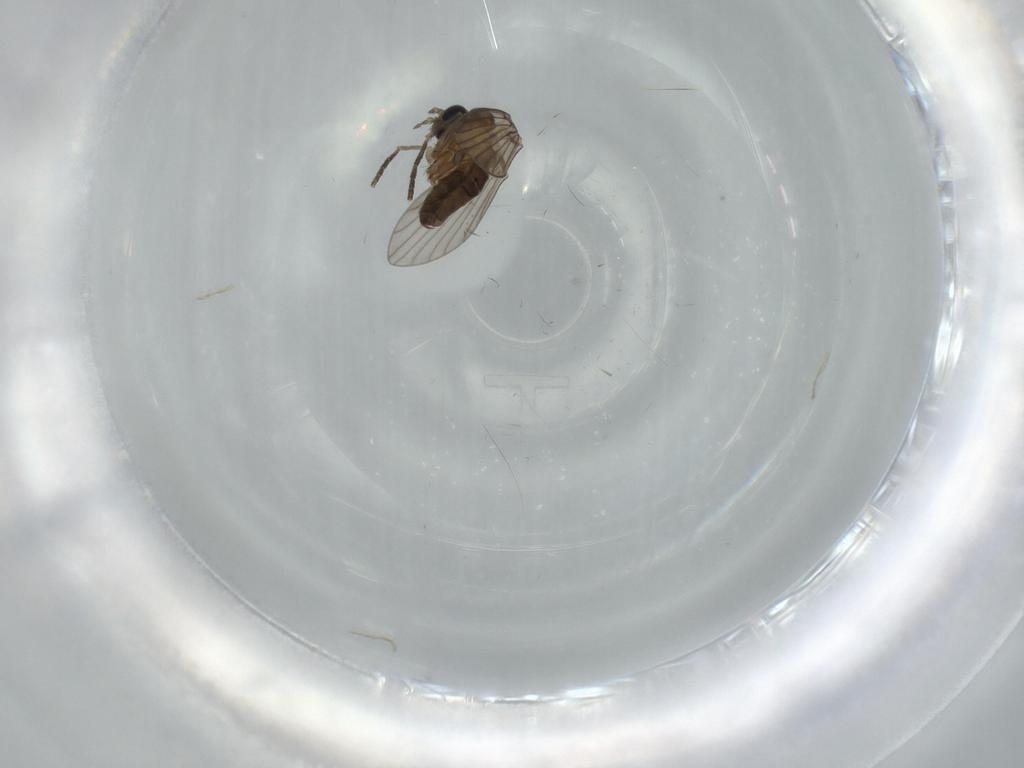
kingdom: Animalia
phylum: Arthropoda
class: Insecta
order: Diptera
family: Psychodidae
